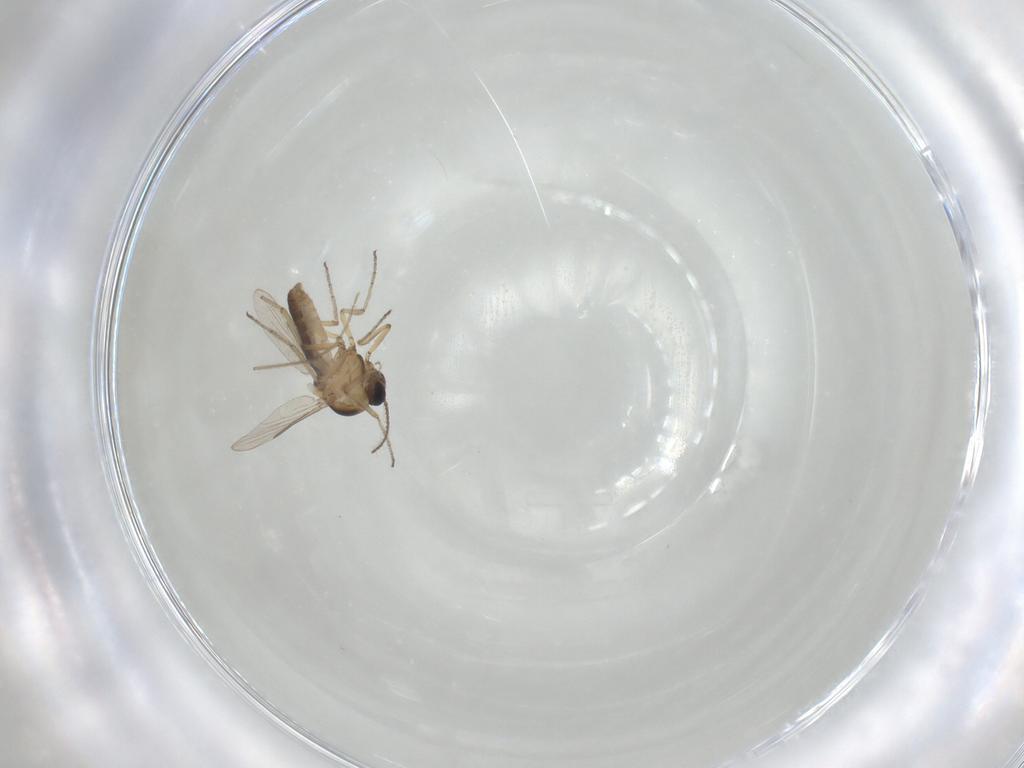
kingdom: Animalia
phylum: Arthropoda
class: Insecta
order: Diptera
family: Ceratopogonidae
